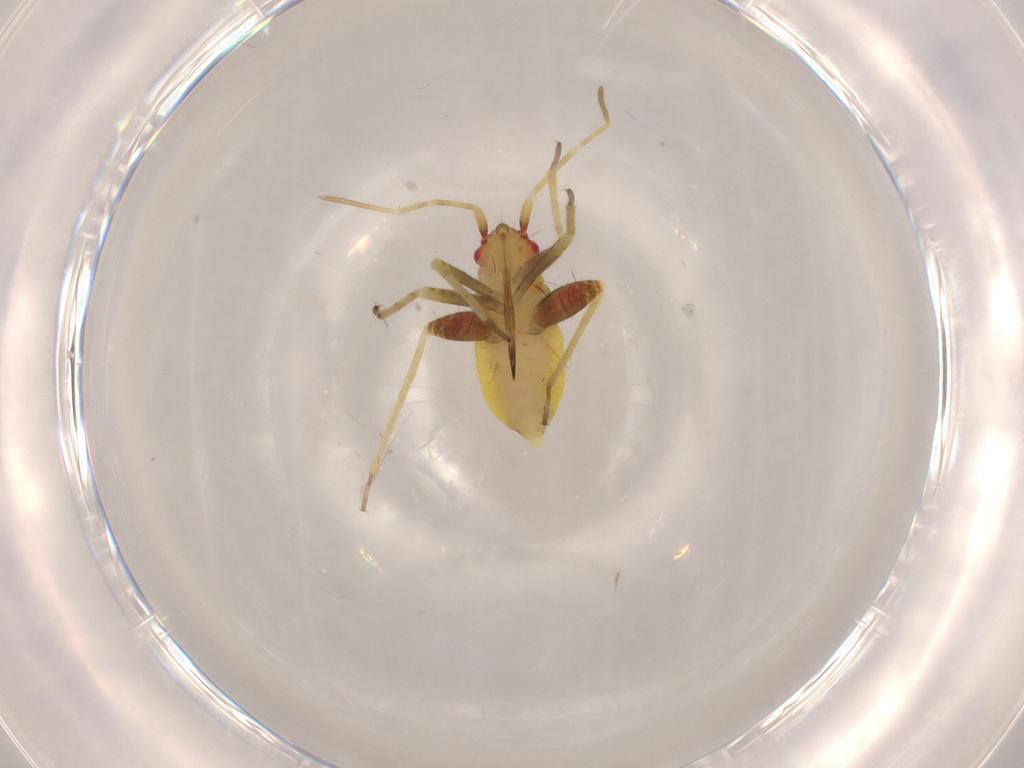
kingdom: Animalia
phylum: Arthropoda
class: Insecta
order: Hemiptera
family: Miridae
